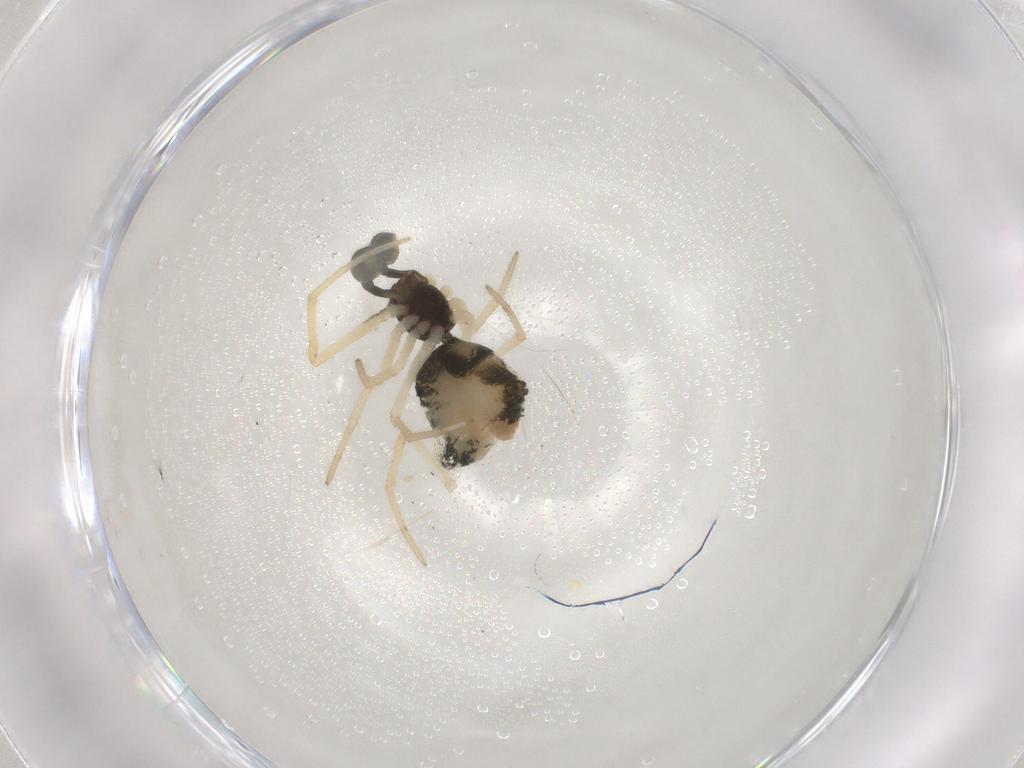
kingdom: Animalia
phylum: Arthropoda
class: Arachnida
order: Araneae
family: Theridiidae
